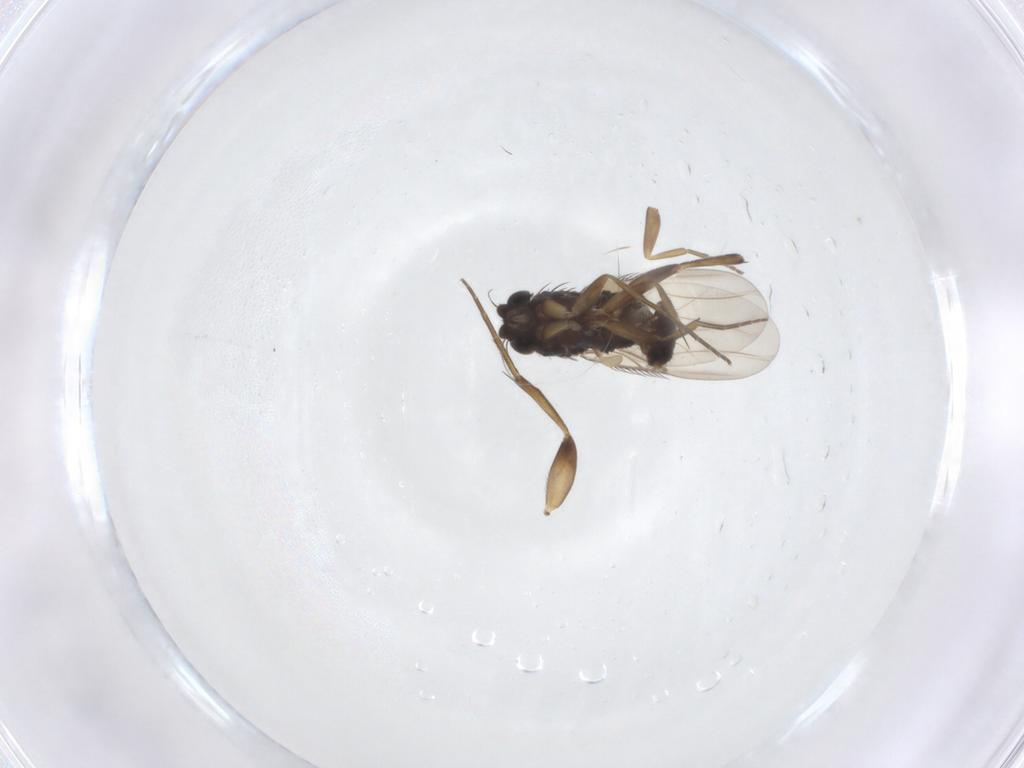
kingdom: Animalia
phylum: Arthropoda
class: Insecta
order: Diptera
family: Phoridae
